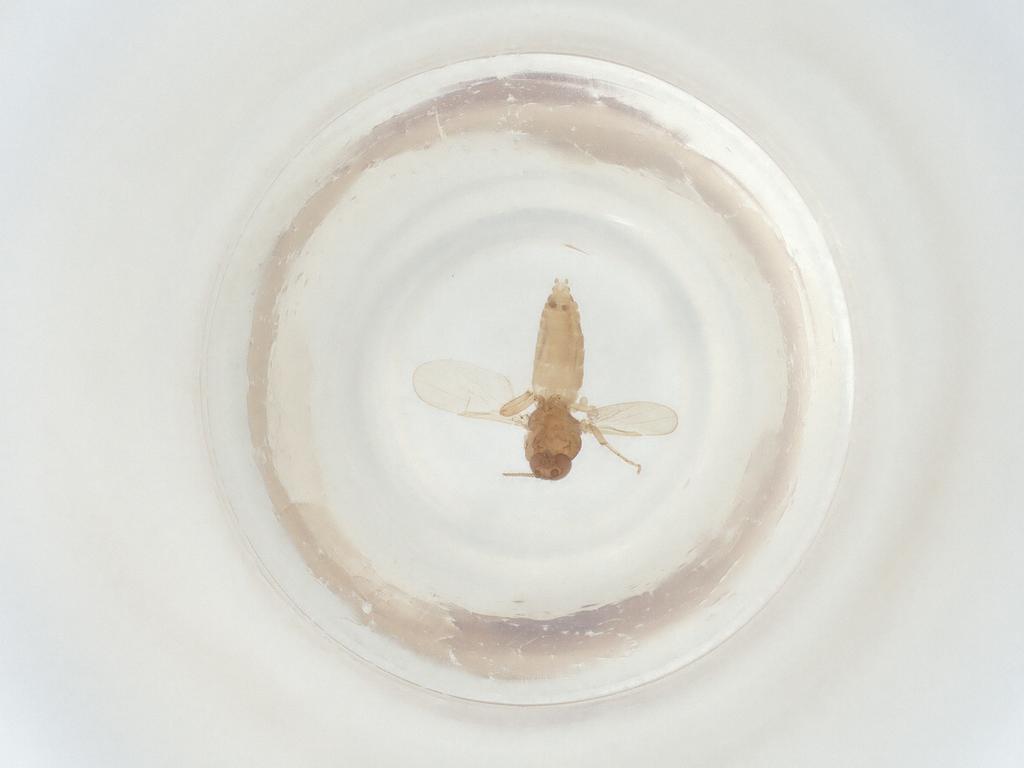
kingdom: Animalia
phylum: Arthropoda
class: Insecta
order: Diptera
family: Ceratopogonidae
